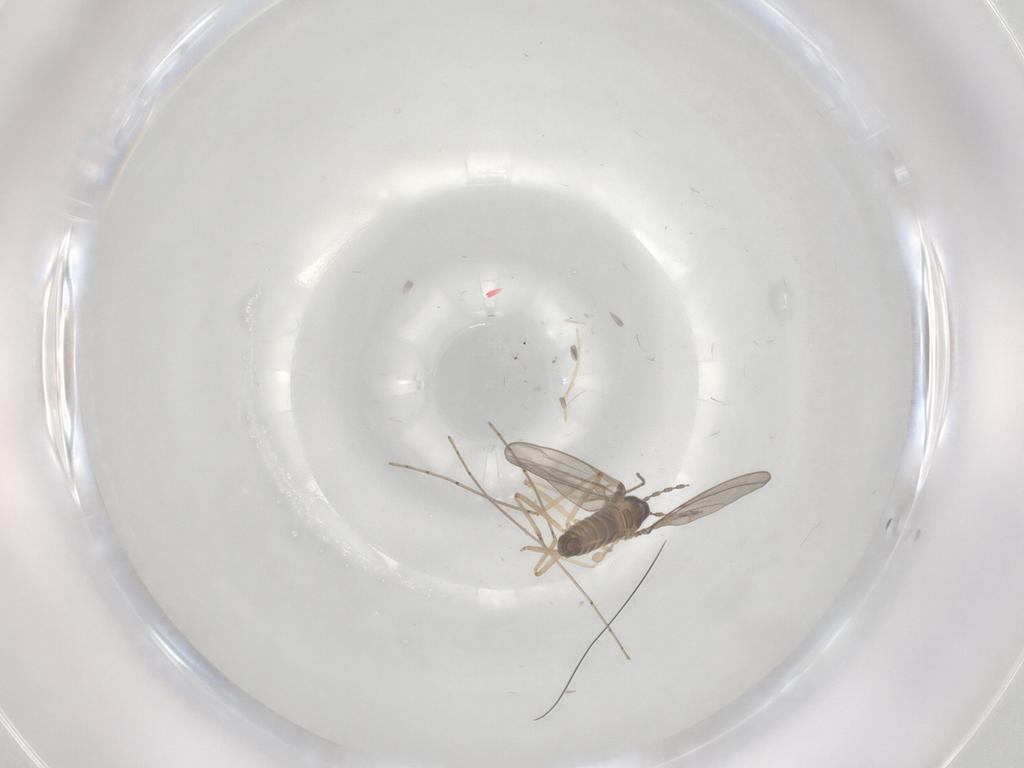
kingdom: Animalia
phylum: Arthropoda
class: Insecta
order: Diptera
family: Cecidomyiidae
